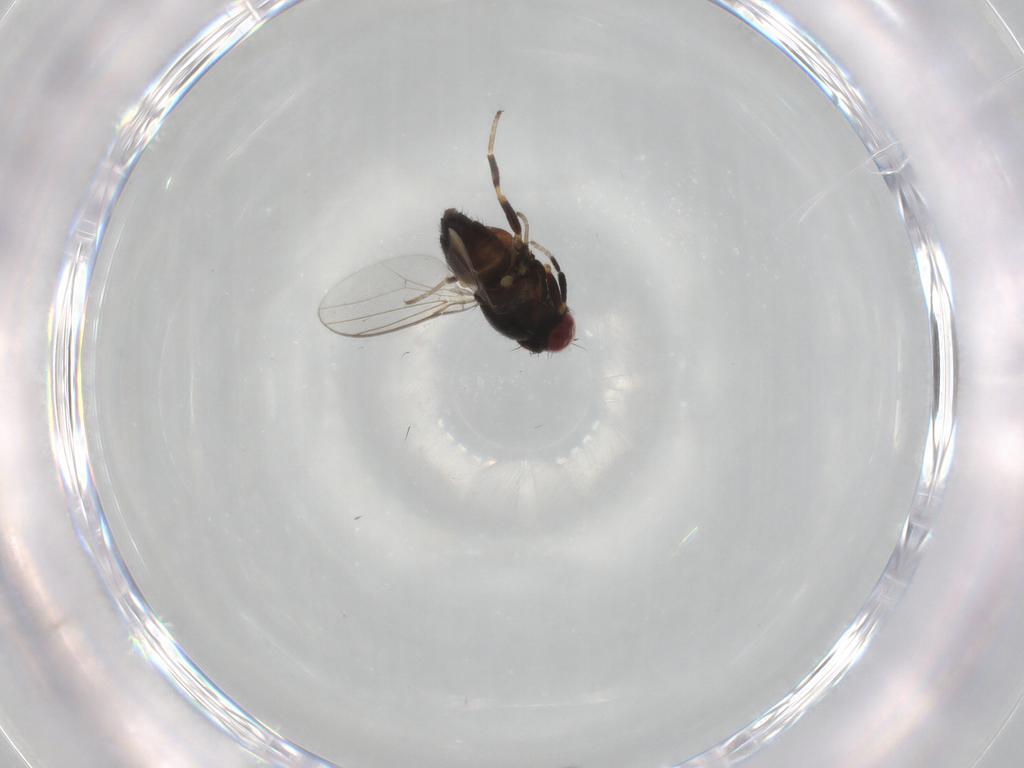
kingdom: Animalia
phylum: Arthropoda
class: Insecta
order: Diptera
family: Chloropidae
